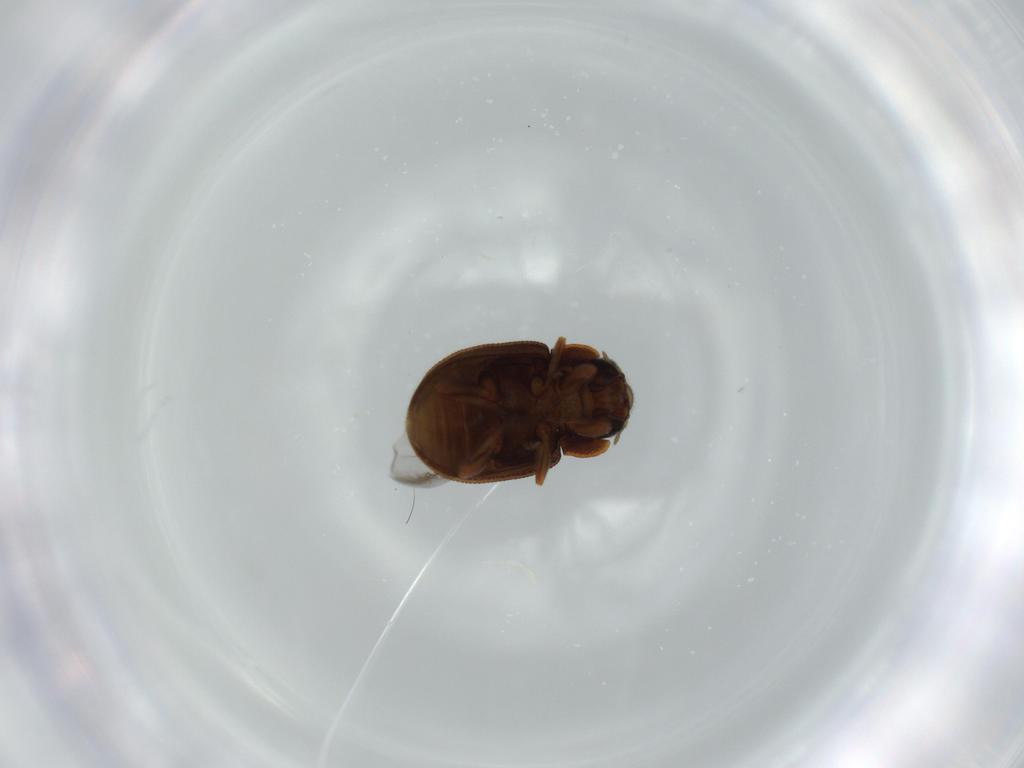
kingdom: Animalia
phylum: Arthropoda
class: Insecta
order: Coleoptera
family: Coccinellidae
